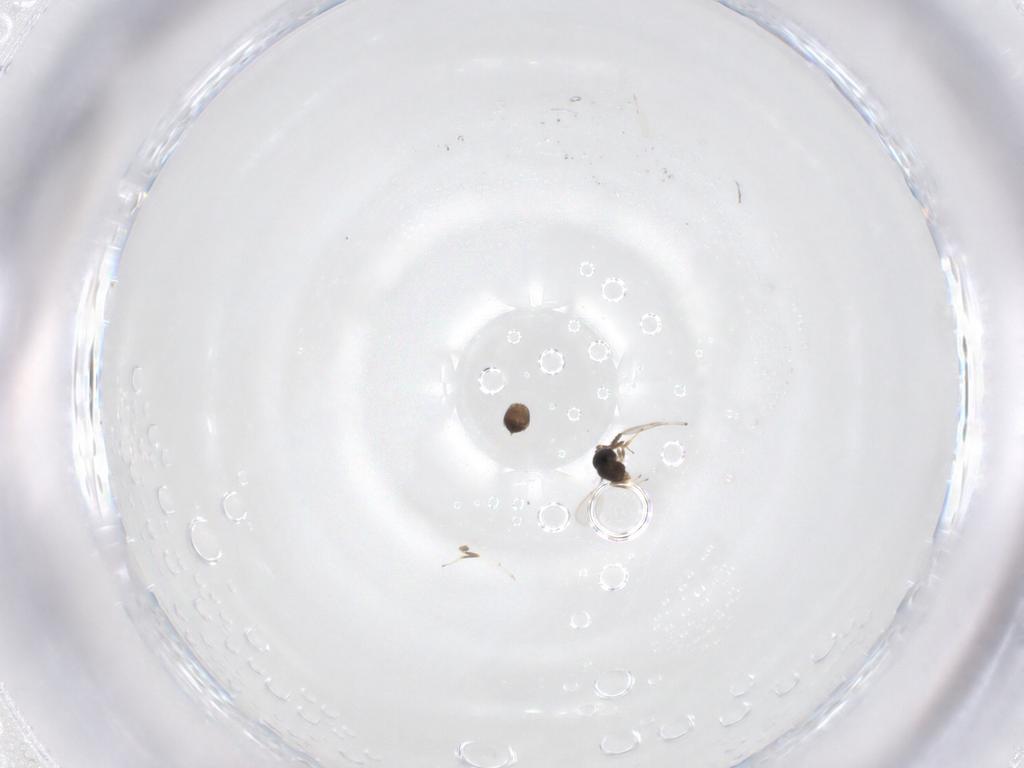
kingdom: Animalia
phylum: Arthropoda
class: Insecta
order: Hymenoptera
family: Scelionidae
